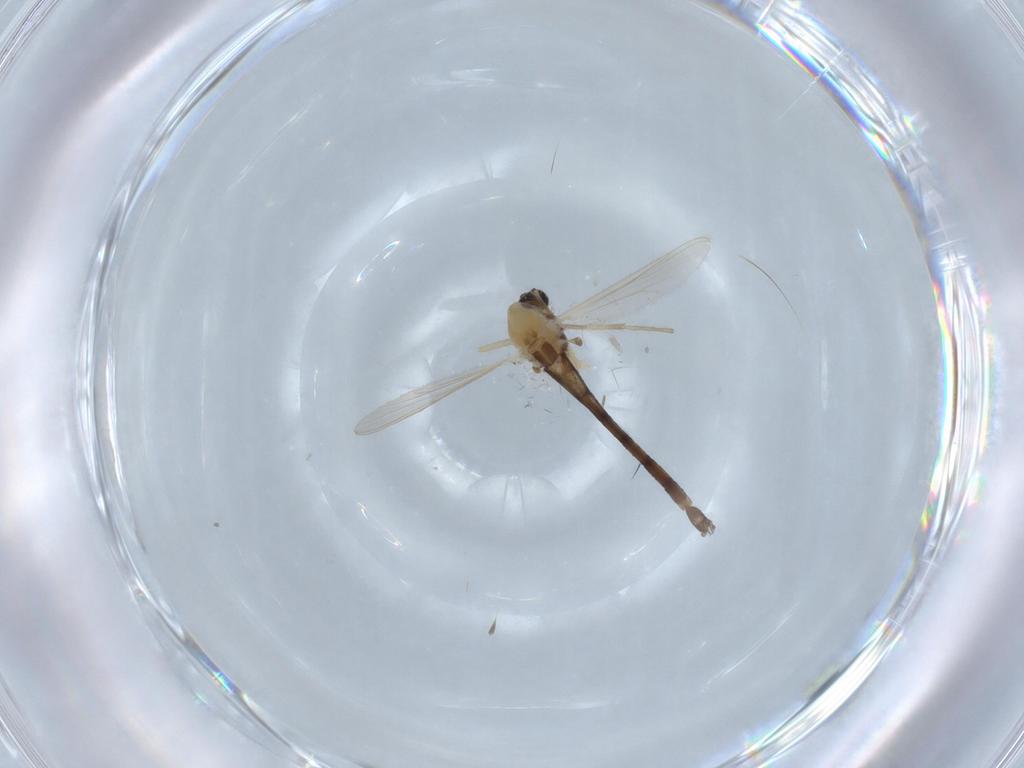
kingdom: Animalia
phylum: Arthropoda
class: Insecta
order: Diptera
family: Chironomidae
